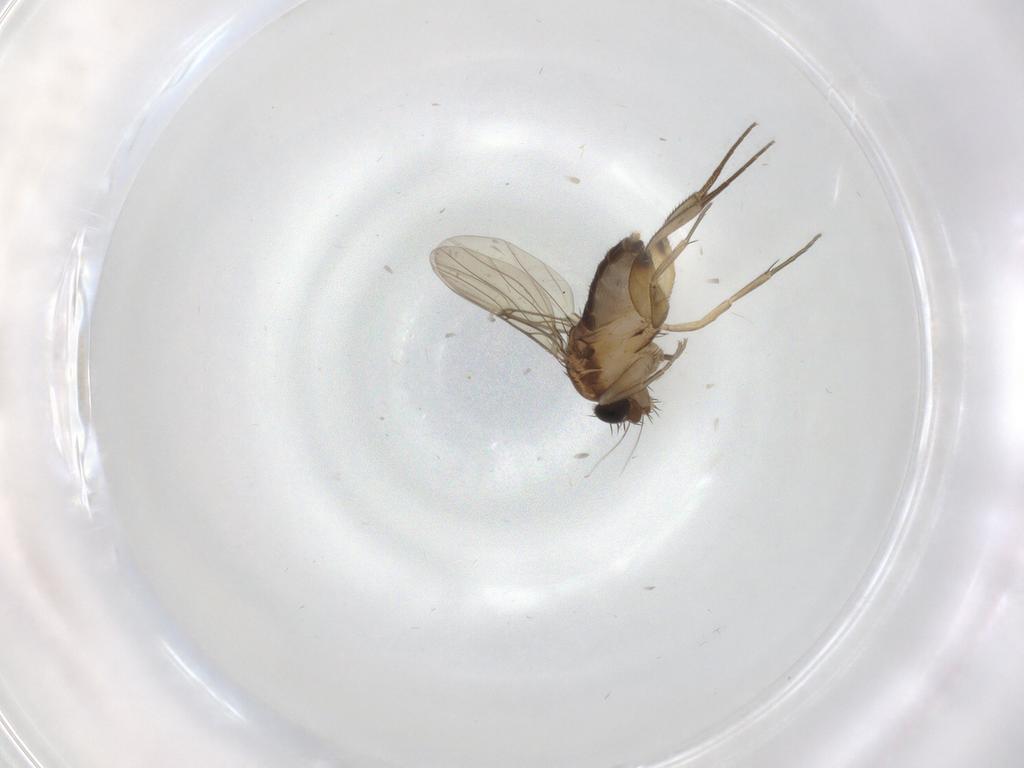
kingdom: Animalia
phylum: Arthropoda
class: Insecta
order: Diptera
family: Phoridae
